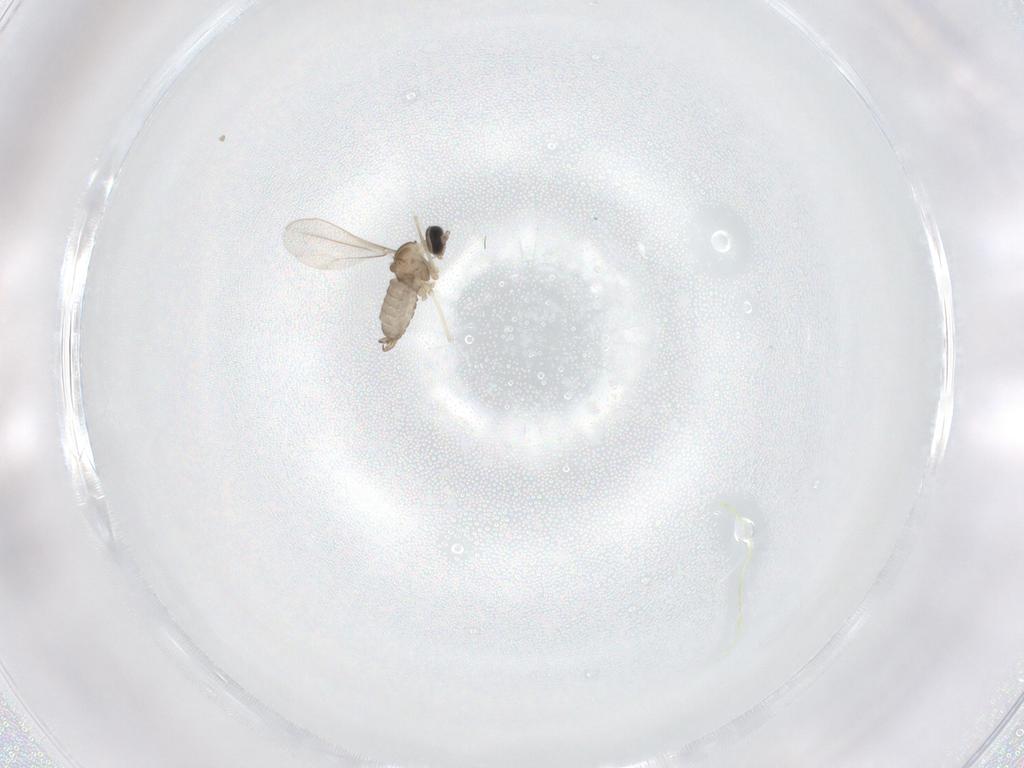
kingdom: Animalia
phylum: Arthropoda
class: Insecta
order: Diptera
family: Cecidomyiidae
